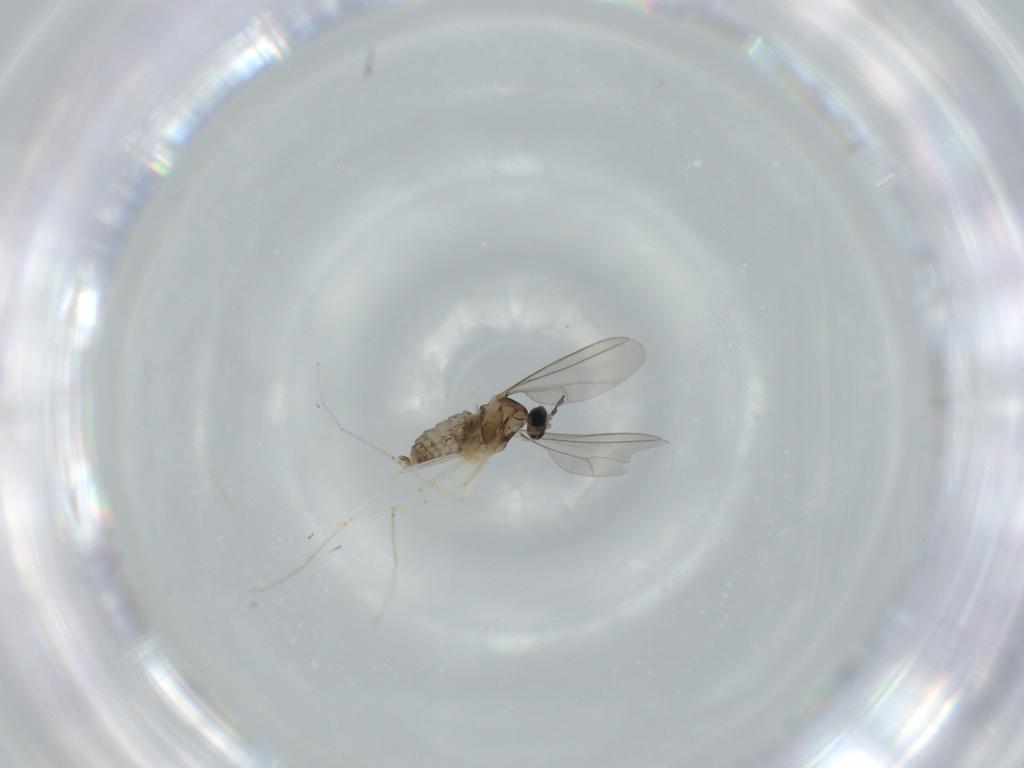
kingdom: Animalia
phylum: Arthropoda
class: Insecta
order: Diptera
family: Cecidomyiidae
